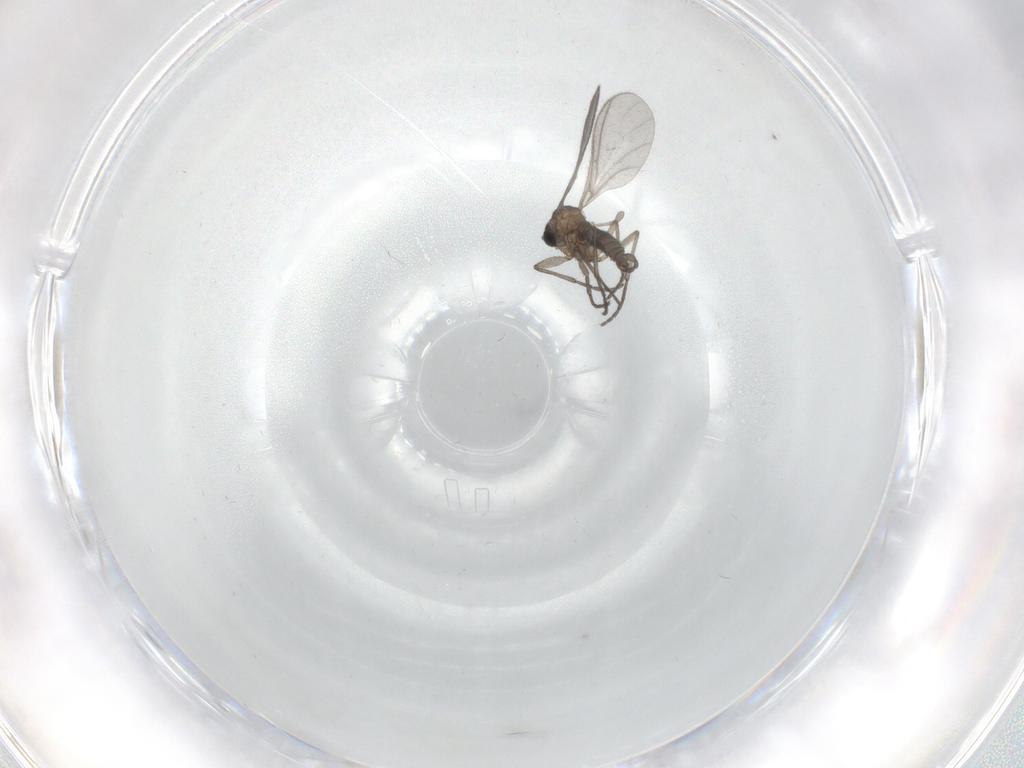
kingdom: Animalia
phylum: Arthropoda
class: Insecta
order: Diptera
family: Sciaridae
